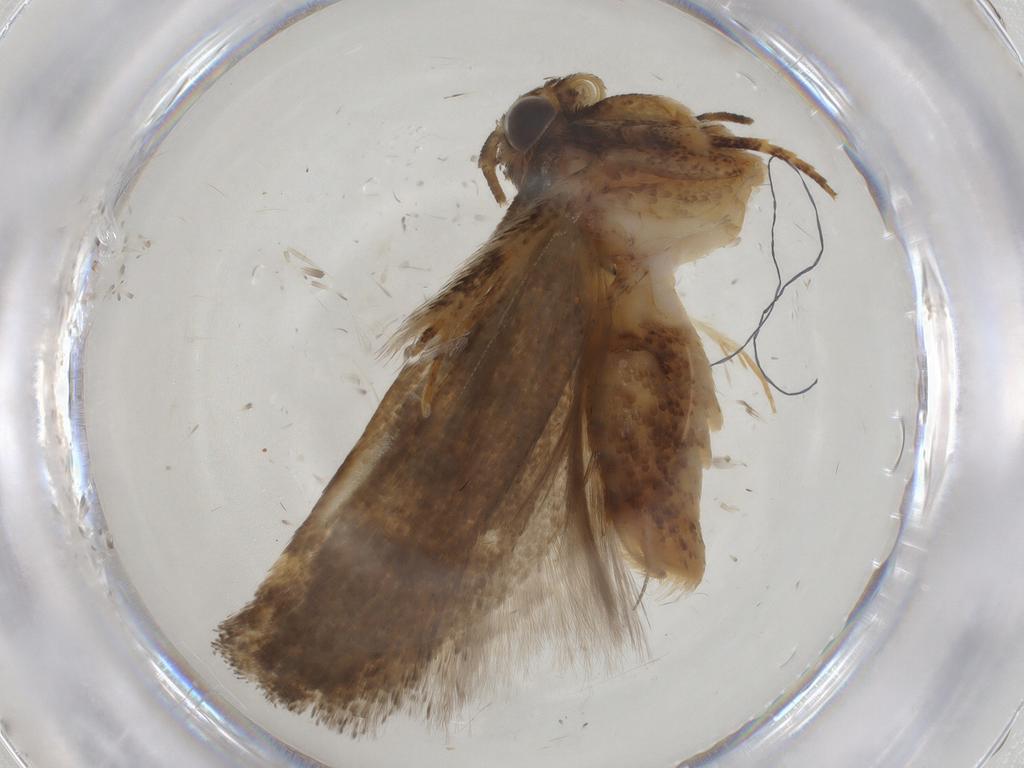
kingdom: Animalia
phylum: Arthropoda
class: Insecta
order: Lepidoptera
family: Gelechiidae
